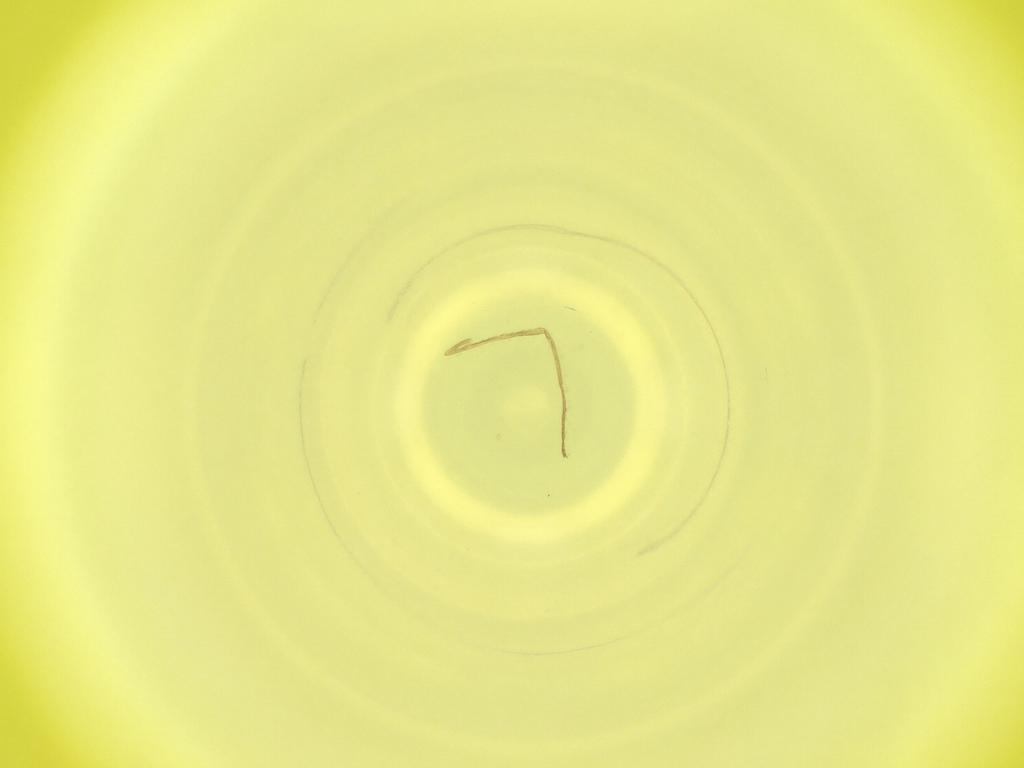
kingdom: Animalia
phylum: Arthropoda
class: Insecta
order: Diptera
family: Cecidomyiidae
